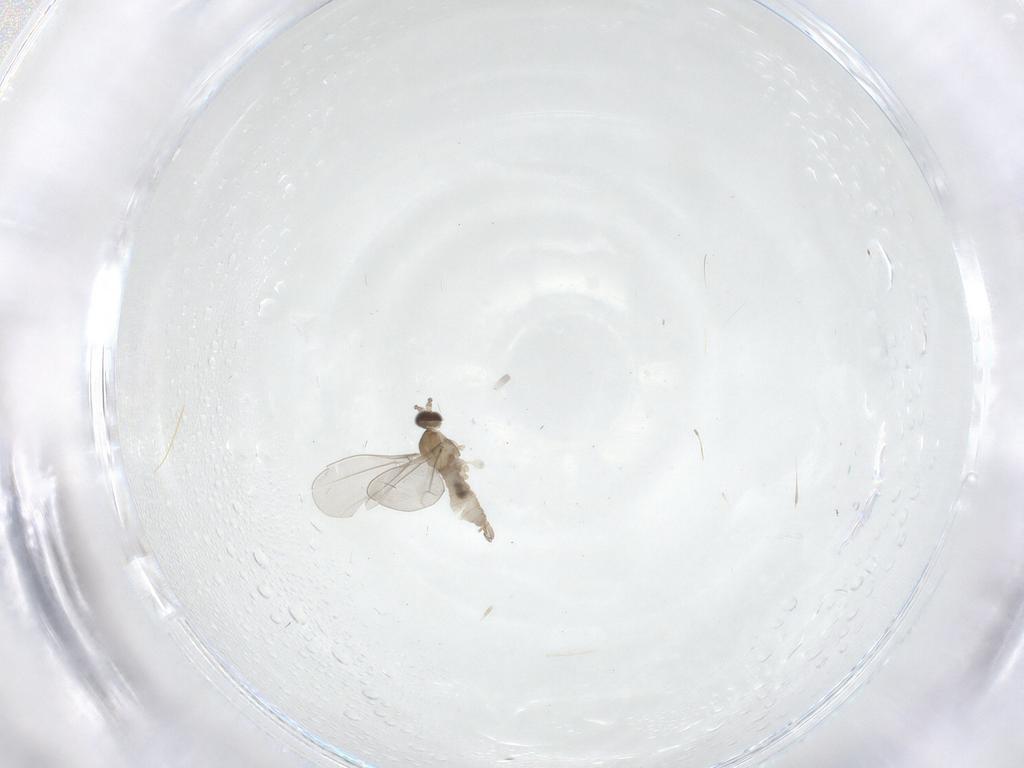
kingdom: Animalia
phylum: Arthropoda
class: Insecta
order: Diptera
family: Cecidomyiidae
